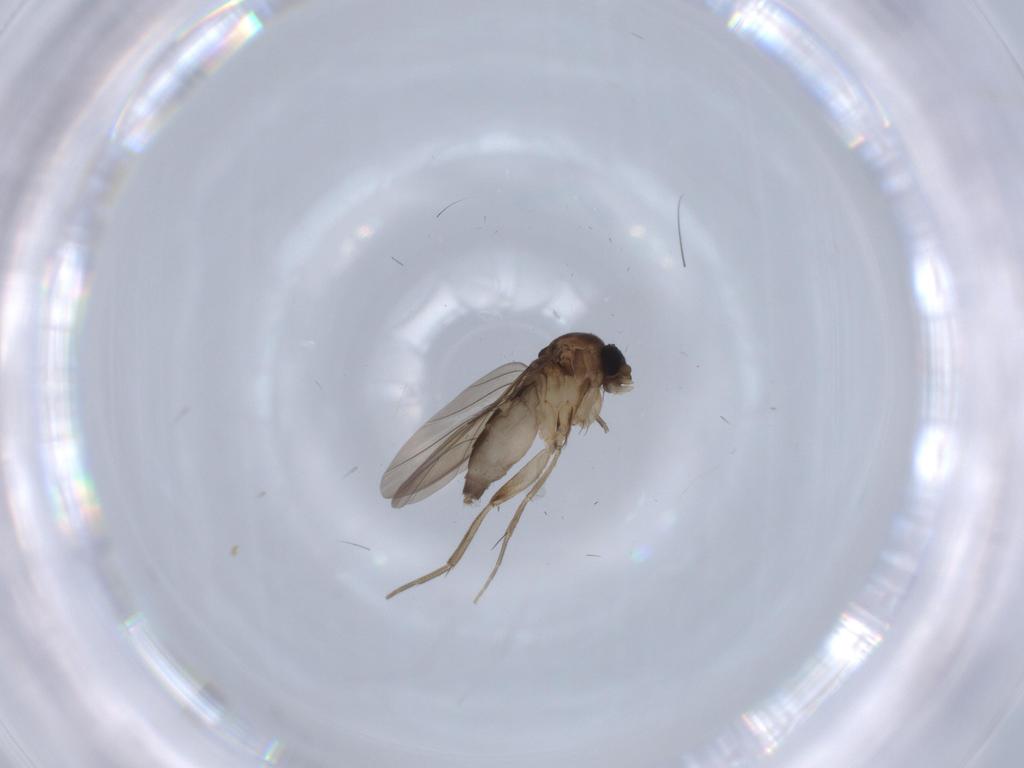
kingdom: Animalia
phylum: Arthropoda
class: Insecta
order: Diptera
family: Phoridae
